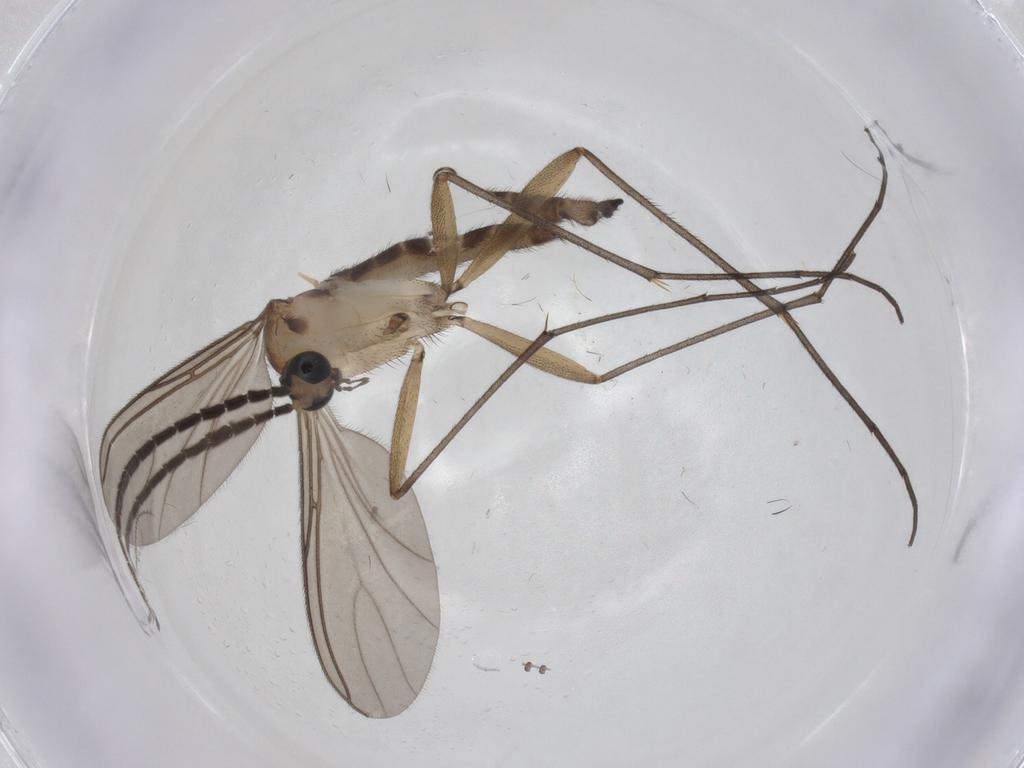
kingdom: Animalia
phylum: Arthropoda
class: Insecta
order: Diptera
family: Sciaridae
